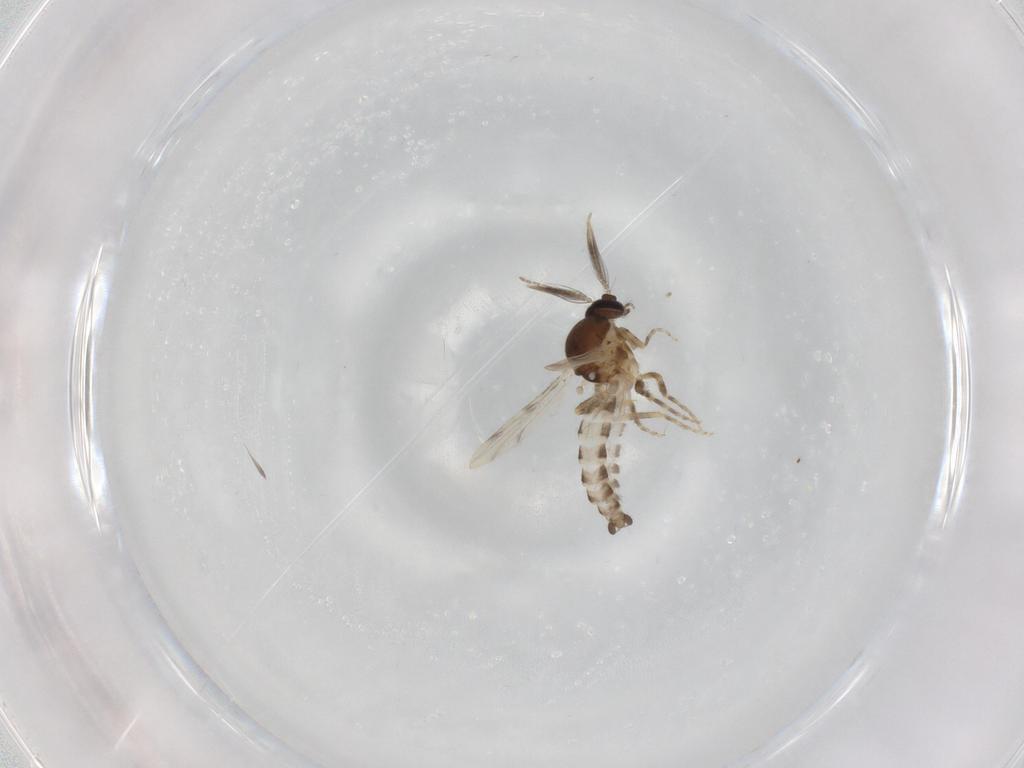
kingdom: Animalia
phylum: Arthropoda
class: Insecta
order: Diptera
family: Ceratopogonidae
